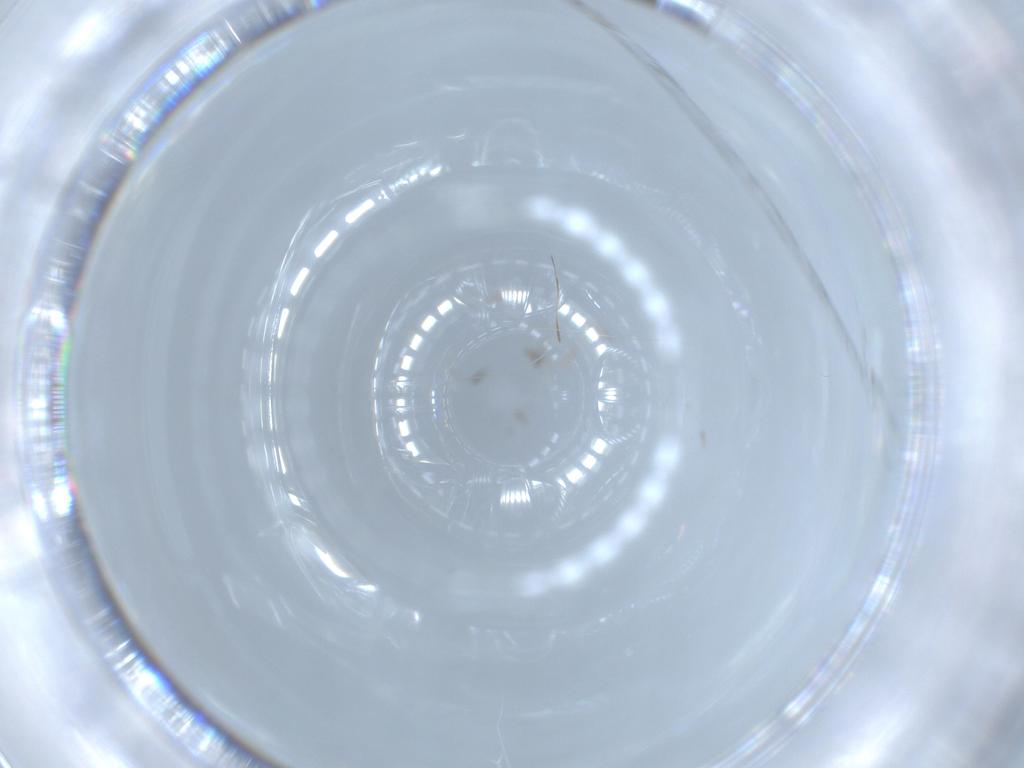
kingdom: Animalia
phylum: Arthropoda
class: Insecta
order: Hymenoptera
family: Formicidae
